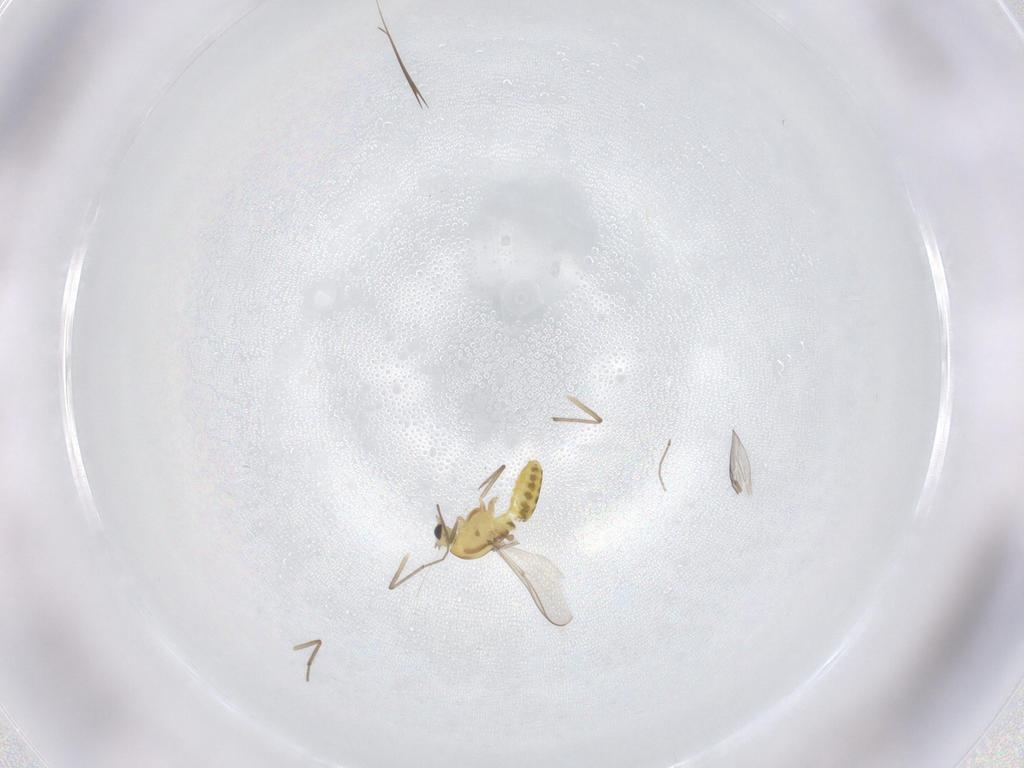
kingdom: Animalia
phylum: Arthropoda
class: Insecta
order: Diptera
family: Chironomidae
